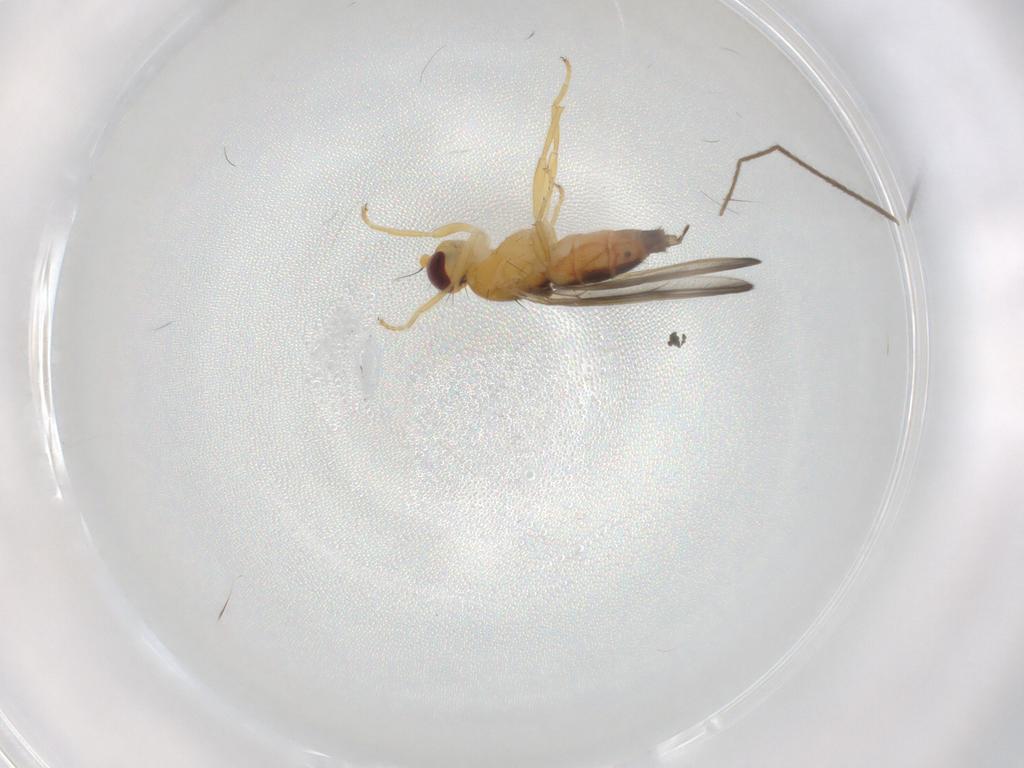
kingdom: Animalia
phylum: Arthropoda
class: Insecta
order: Diptera
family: Neurochaetidae
